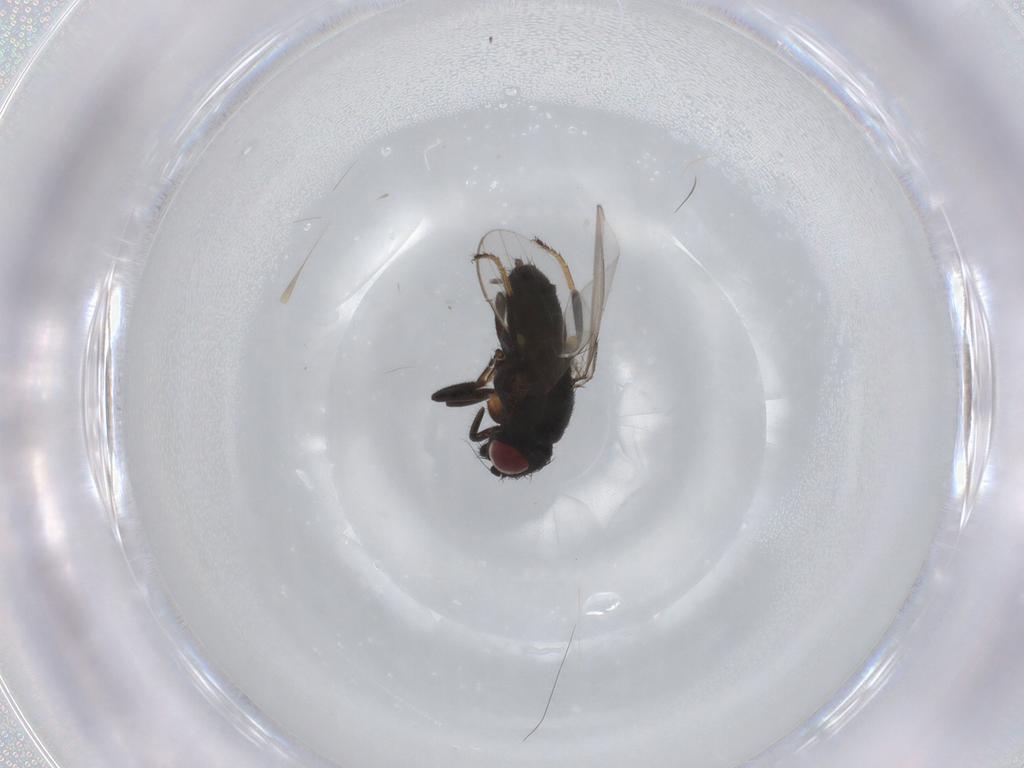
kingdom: Animalia
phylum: Arthropoda
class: Insecta
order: Diptera
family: Milichiidae
